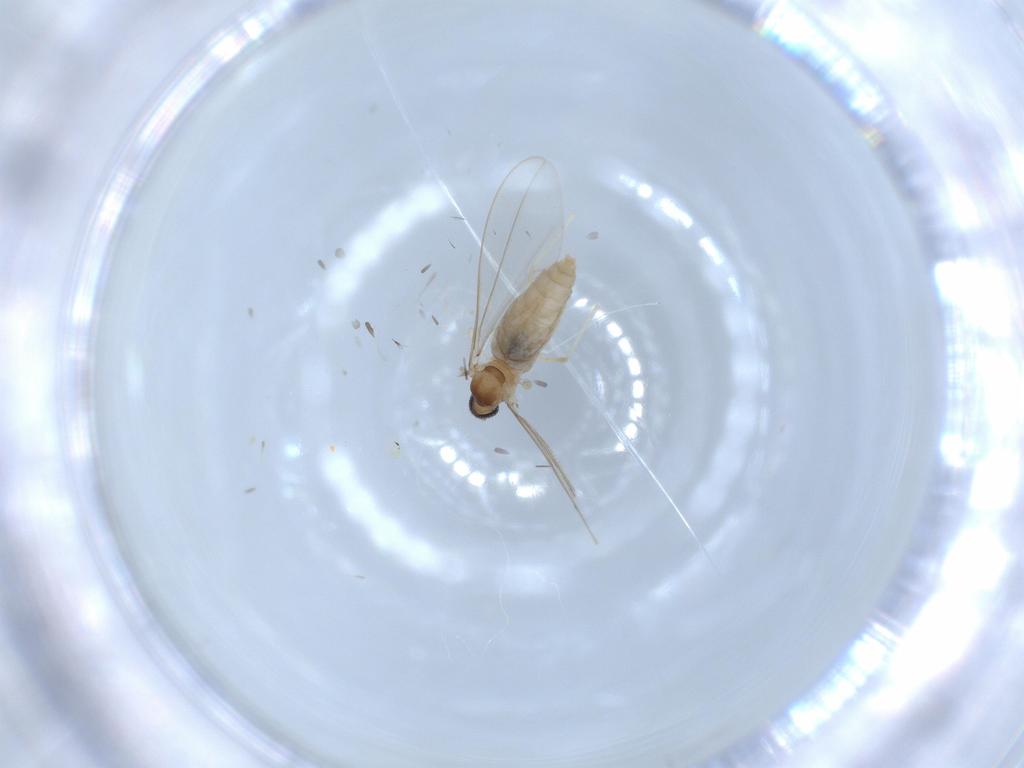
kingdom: Animalia
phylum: Arthropoda
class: Insecta
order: Diptera
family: Cecidomyiidae
